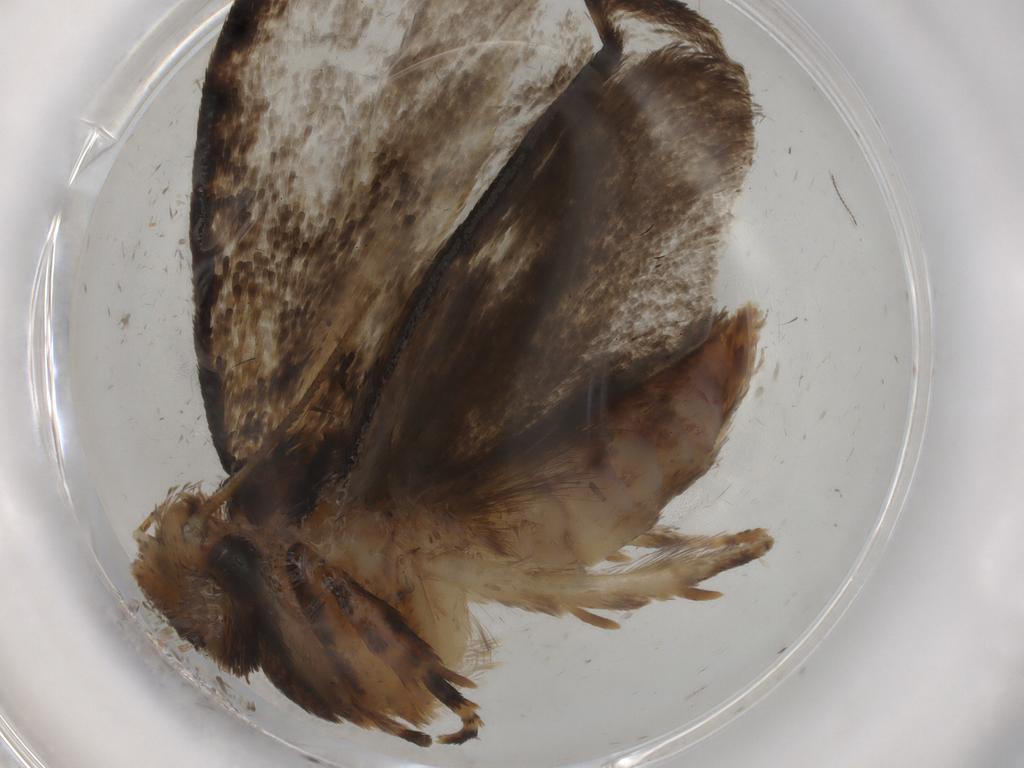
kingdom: Animalia
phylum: Arthropoda
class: Insecta
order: Lepidoptera
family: Tineidae
